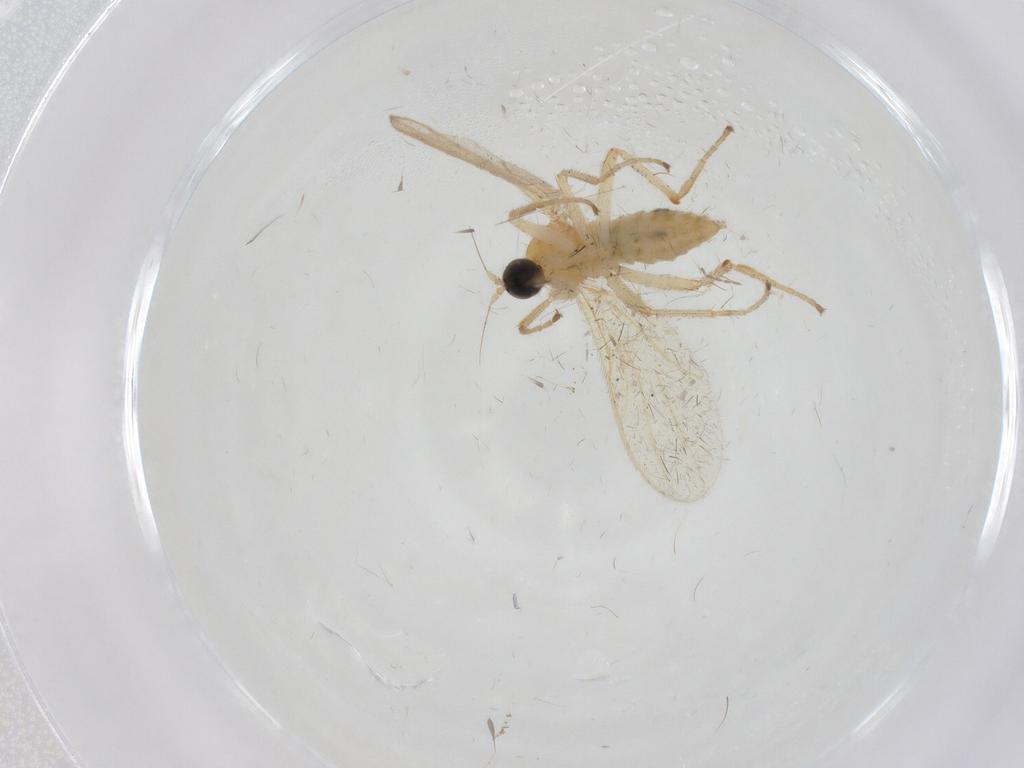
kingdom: Animalia
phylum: Arthropoda
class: Insecta
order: Diptera
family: Hybotidae
